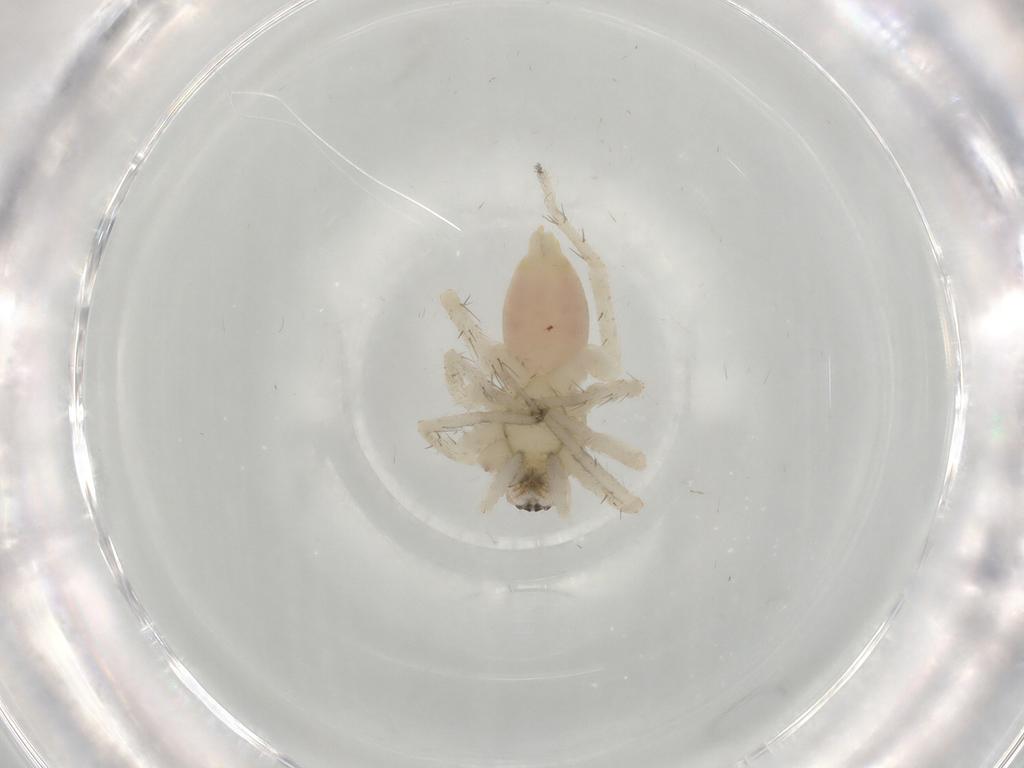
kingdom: Animalia
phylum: Arthropoda
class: Arachnida
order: Araneae
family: Anyphaenidae
